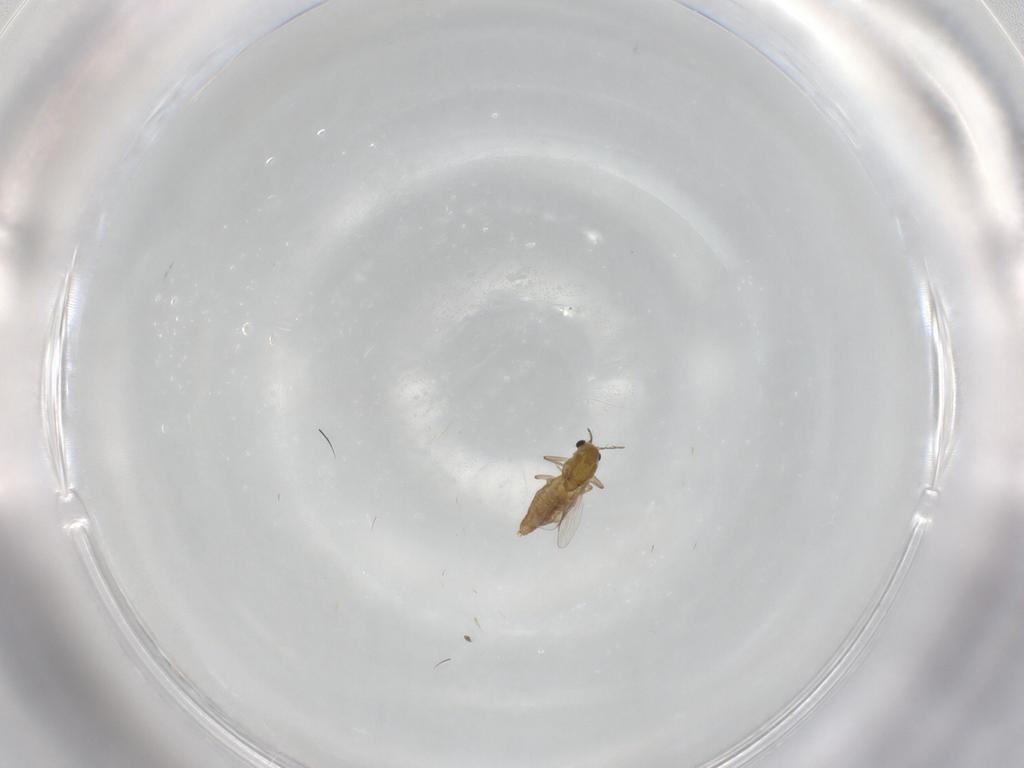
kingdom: Animalia
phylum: Arthropoda
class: Insecta
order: Diptera
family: Chironomidae
